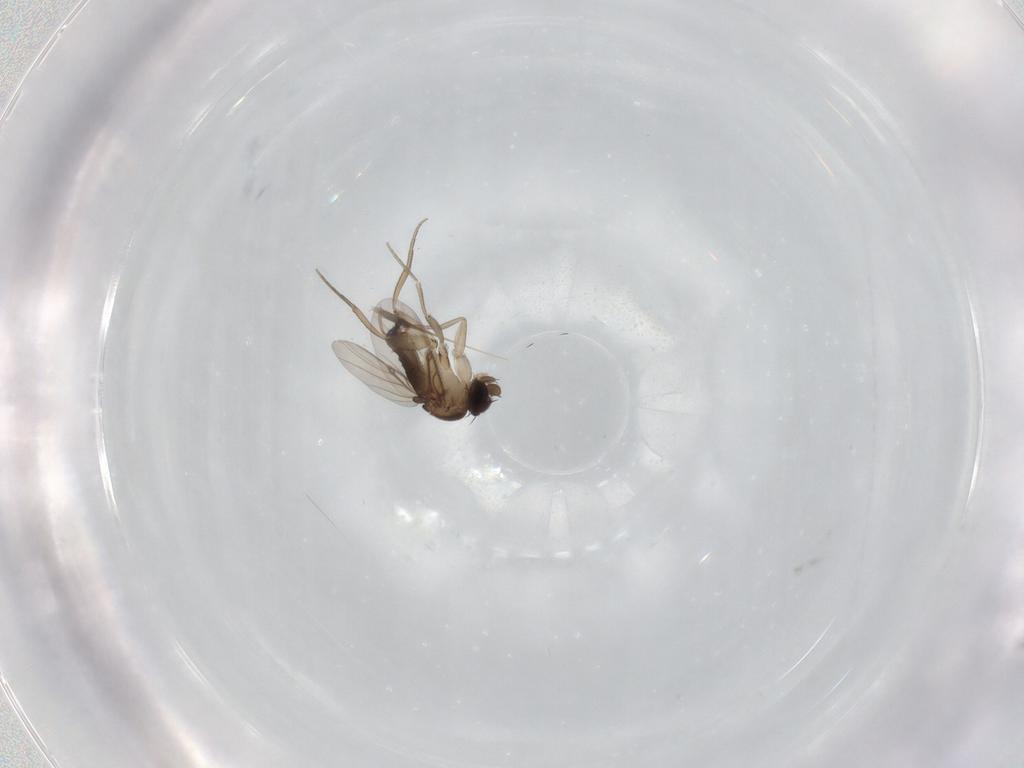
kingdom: Animalia
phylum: Arthropoda
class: Insecta
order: Diptera
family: Phoridae
